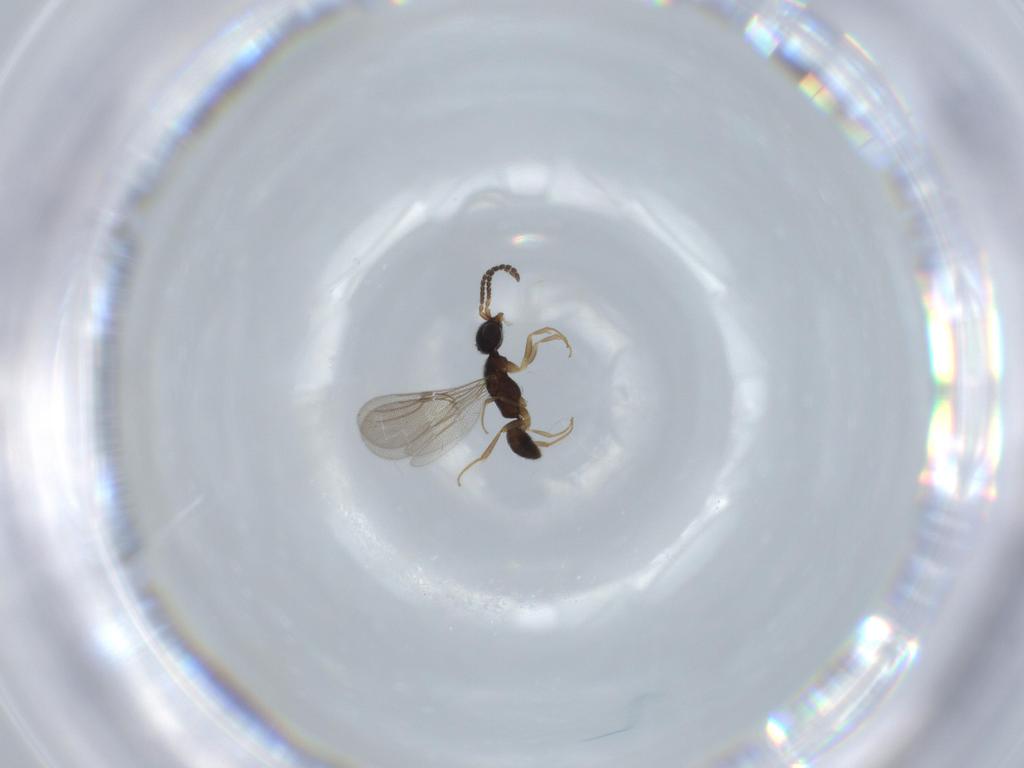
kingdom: Animalia
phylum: Arthropoda
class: Insecta
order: Hymenoptera
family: Bethylidae
